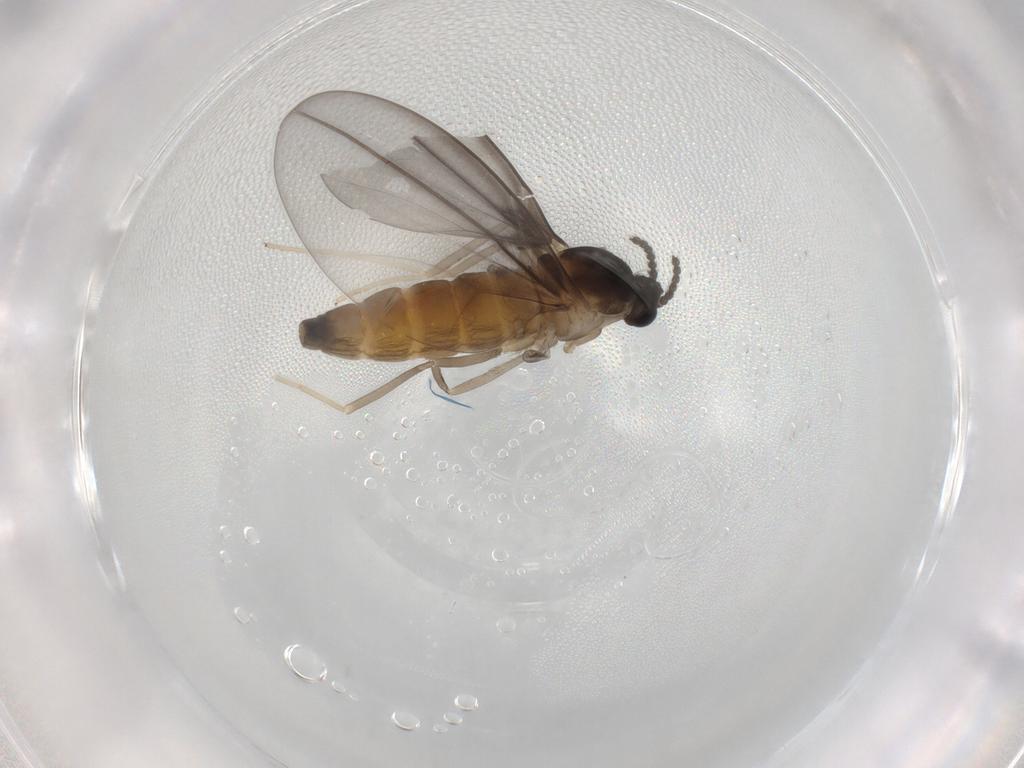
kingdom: Animalia
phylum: Arthropoda
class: Insecta
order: Diptera
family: Cecidomyiidae
